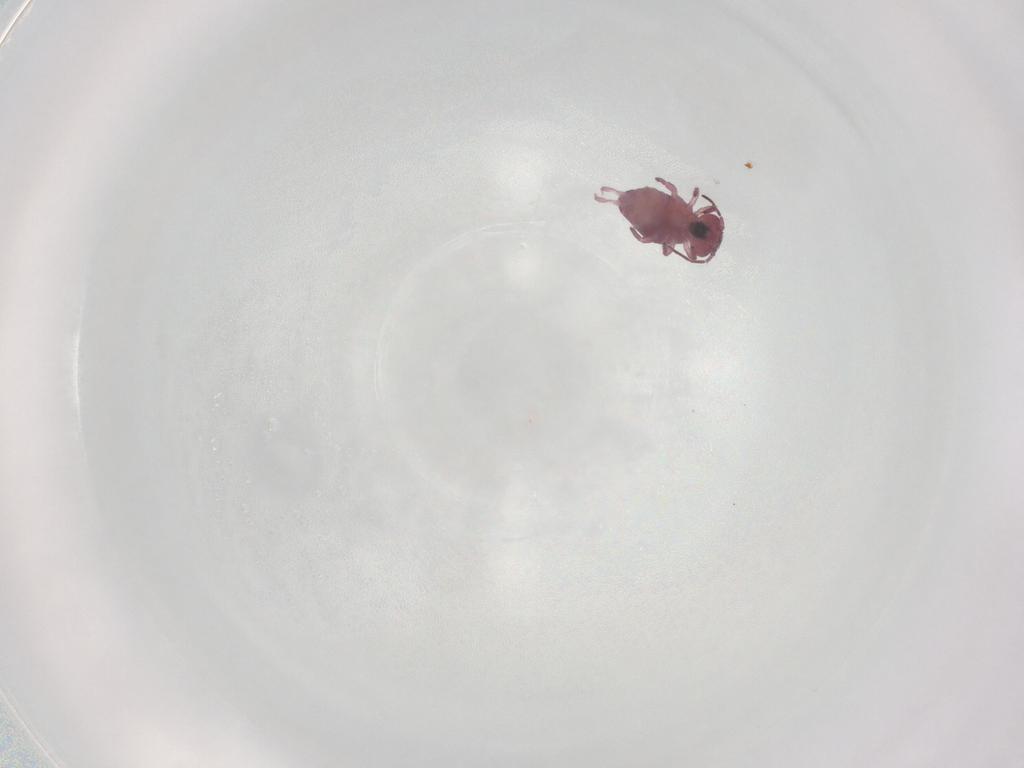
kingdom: Animalia
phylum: Arthropoda
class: Collembola
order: Symphypleona
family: Sminthurididae
